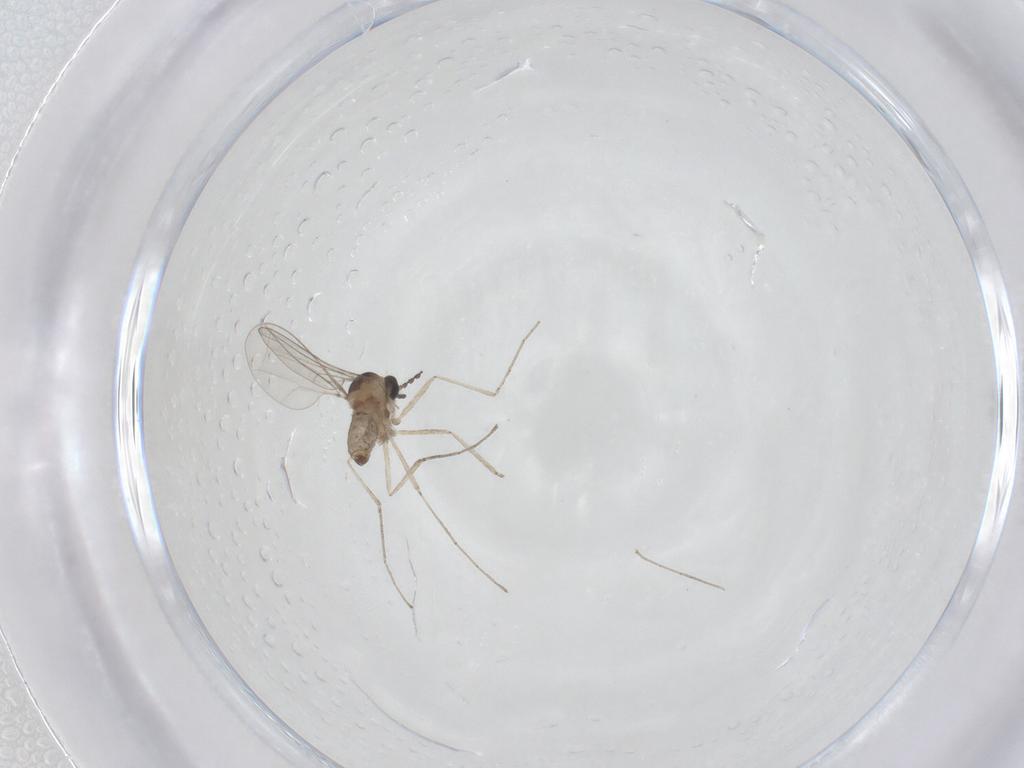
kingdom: Animalia
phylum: Arthropoda
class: Insecta
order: Diptera
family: Cecidomyiidae
